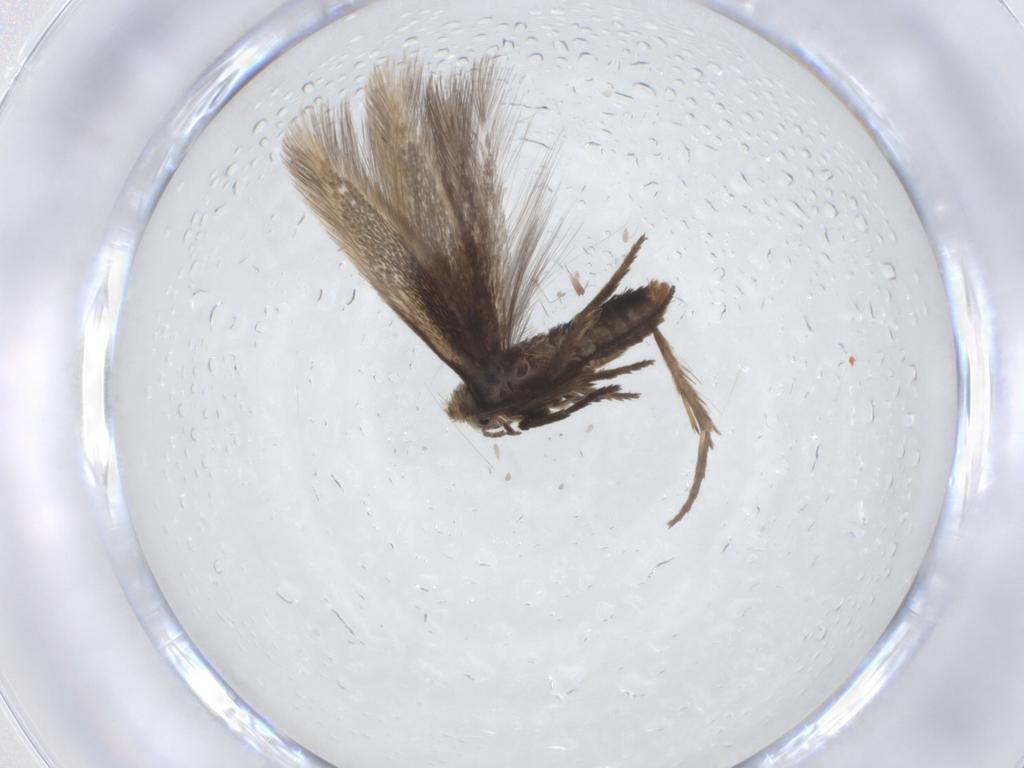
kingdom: Animalia
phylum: Arthropoda
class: Insecta
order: Lepidoptera
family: Nepticulidae
